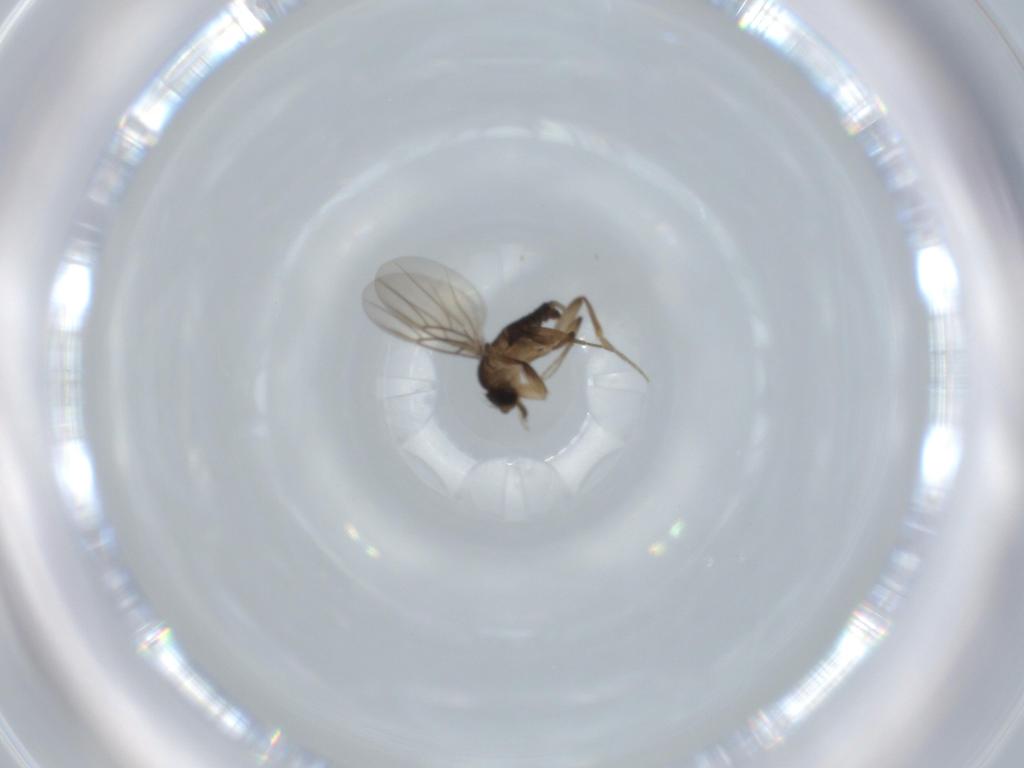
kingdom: Animalia
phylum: Arthropoda
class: Insecta
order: Diptera
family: Phoridae
